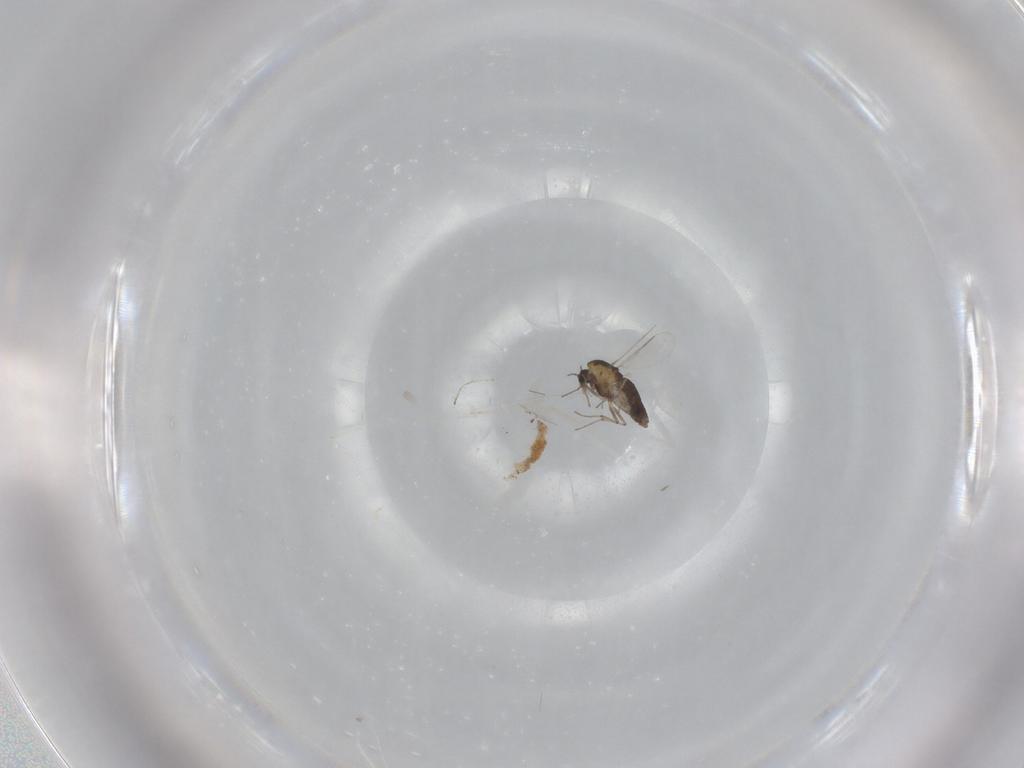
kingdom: Animalia
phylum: Arthropoda
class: Insecta
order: Diptera
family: Chironomidae
